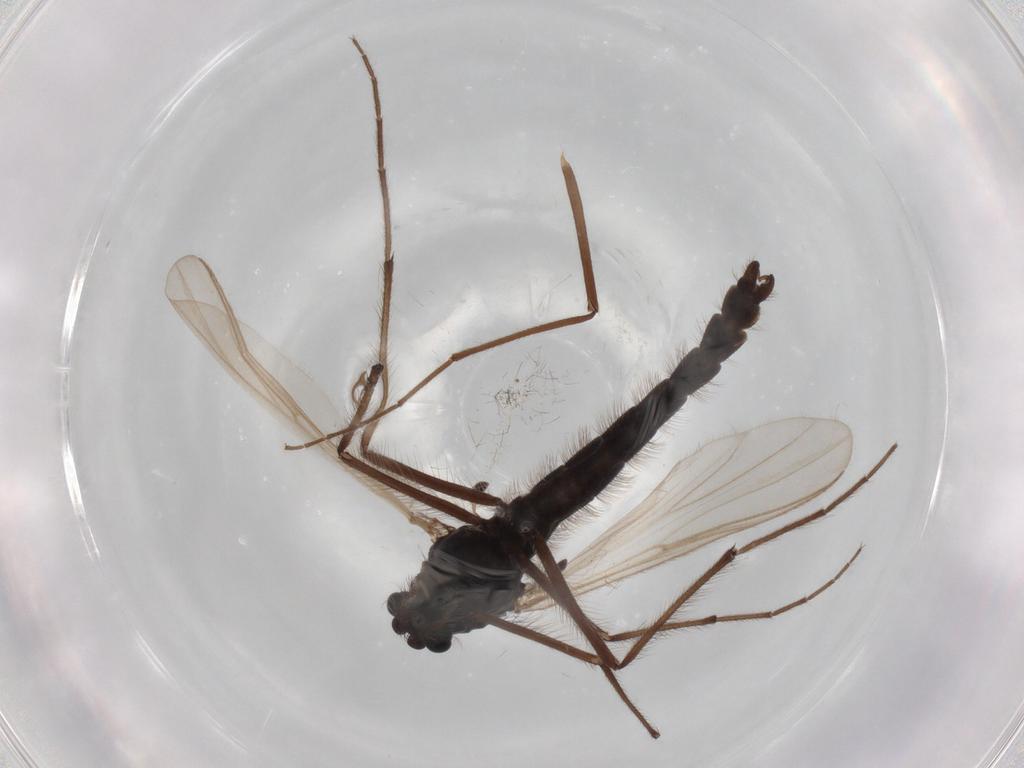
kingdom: Animalia
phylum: Arthropoda
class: Insecta
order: Diptera
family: Sciaridae
